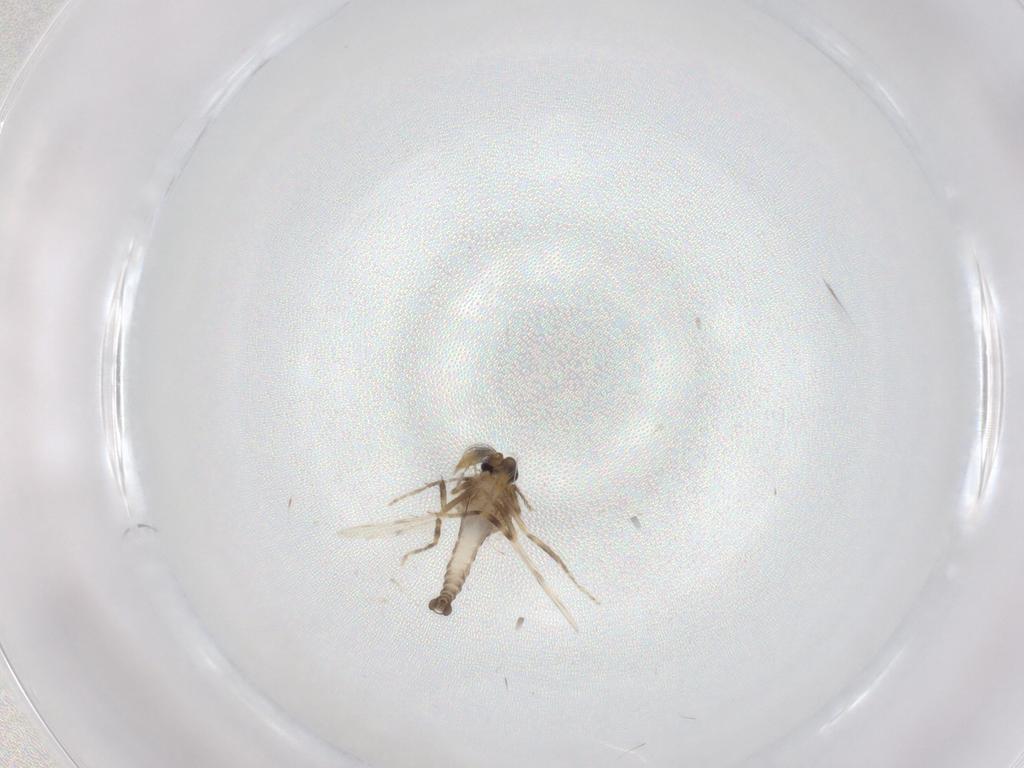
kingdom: Animalia
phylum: Arthropoda
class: Insecta
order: Diptera
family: Ceratopogonidae
